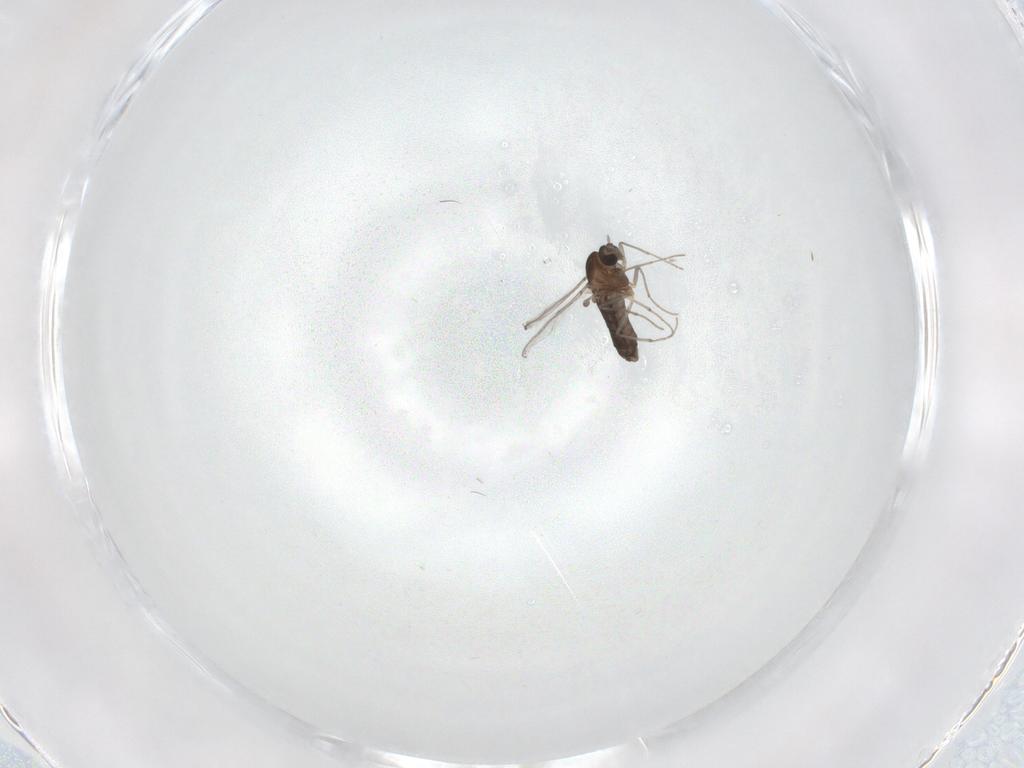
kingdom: Animalia
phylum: Arthropoda
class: Insecta
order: Diptera
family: Chironomidae
